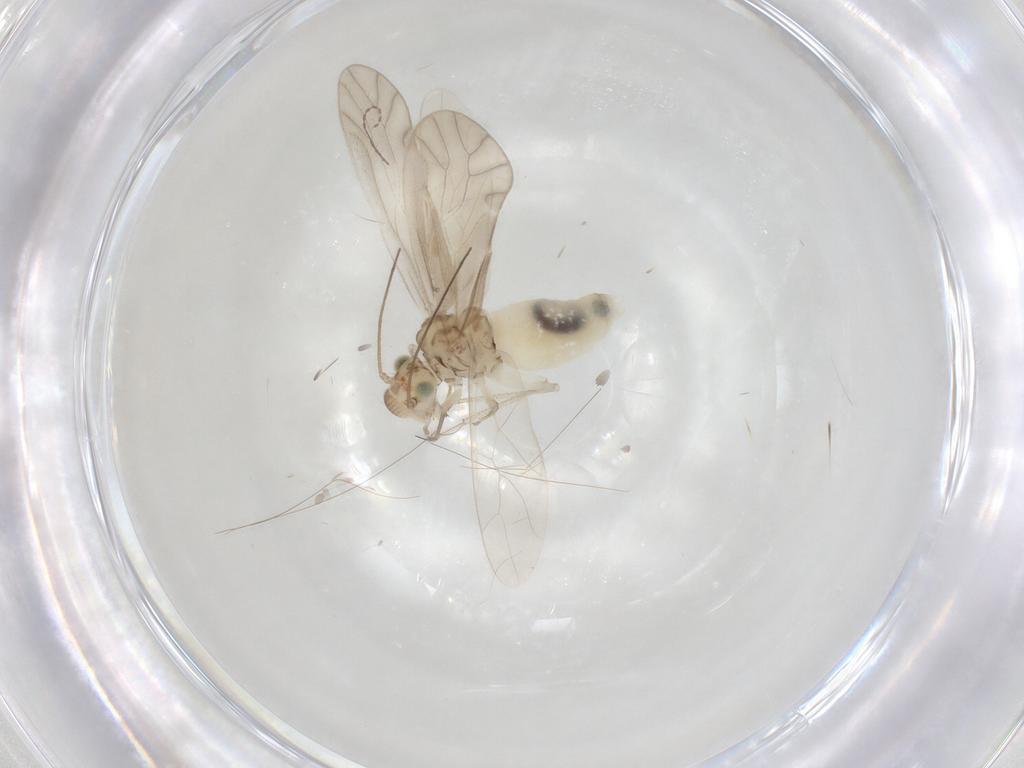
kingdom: Animalia
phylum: Arthropoda
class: Insecta
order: Psocodea
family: Caeciliusidae
